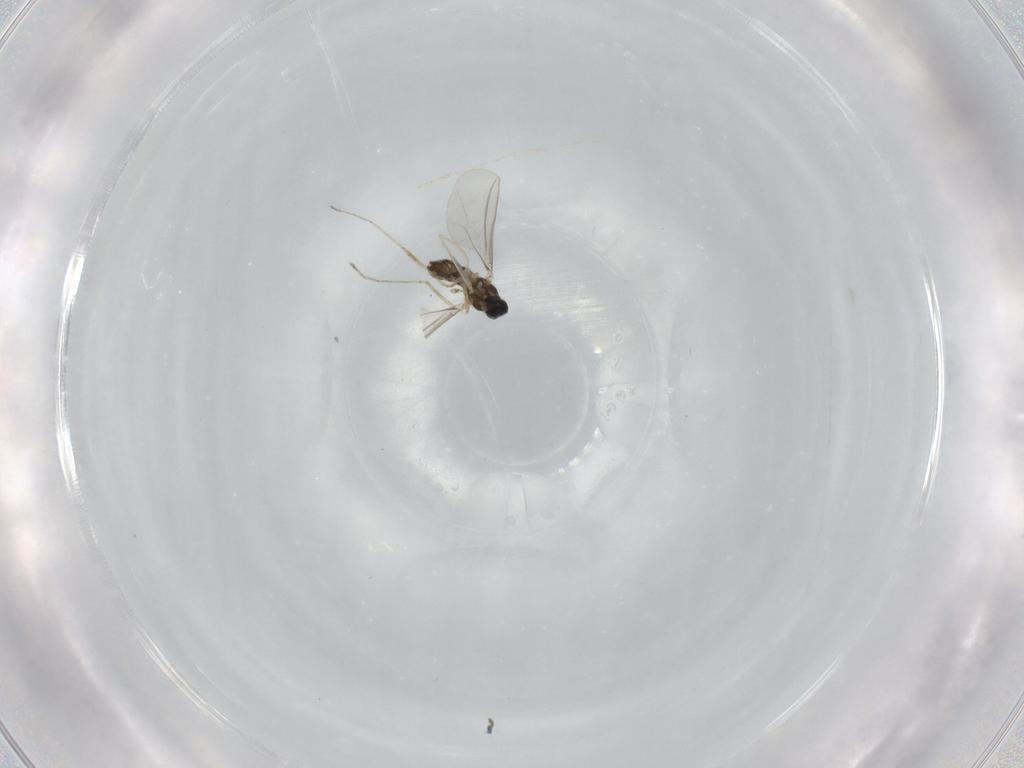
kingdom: Animalia
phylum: Arthropoda
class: Insecta
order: Diptera
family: Cecidomyiidae
